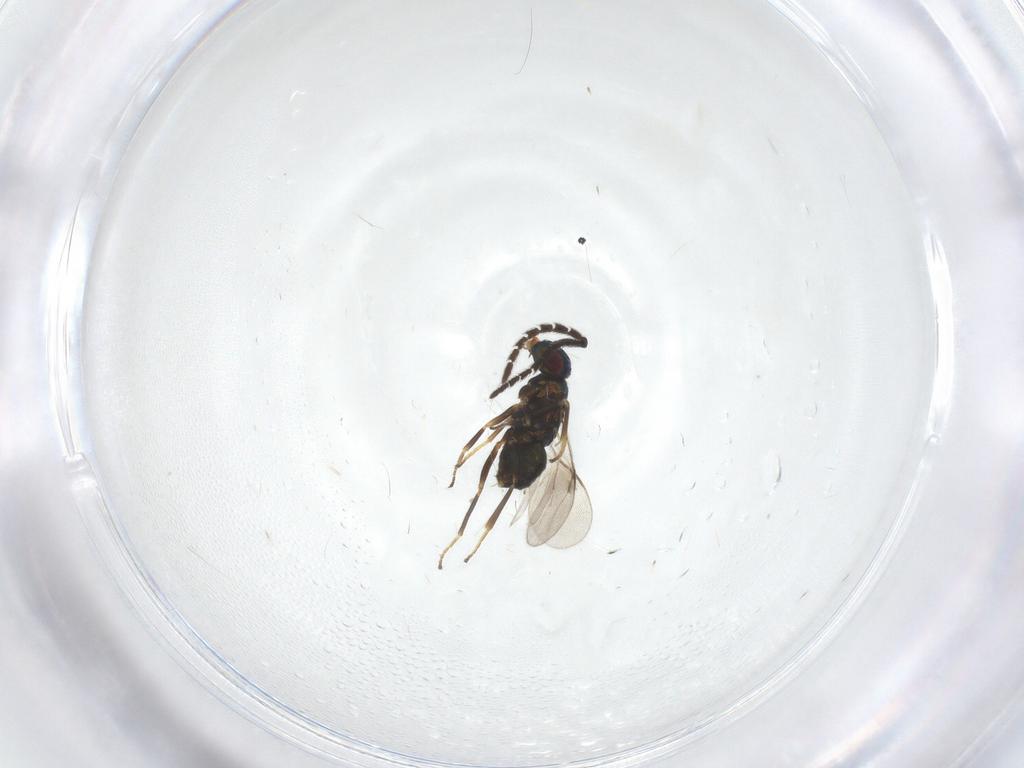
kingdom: Animalia
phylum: Arthropoda
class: Insecta
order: Hymenoptera
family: Encyrtidae
